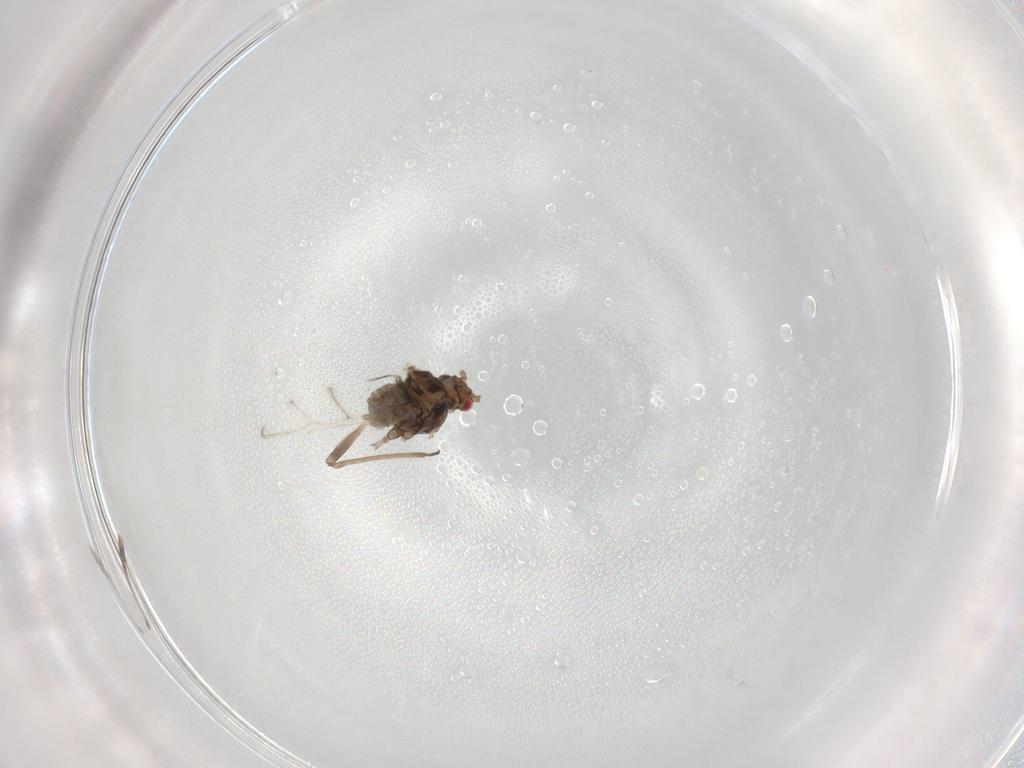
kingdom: Animalia
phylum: Arthropoda
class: Insecta
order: Hemiptera
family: Aphididae
